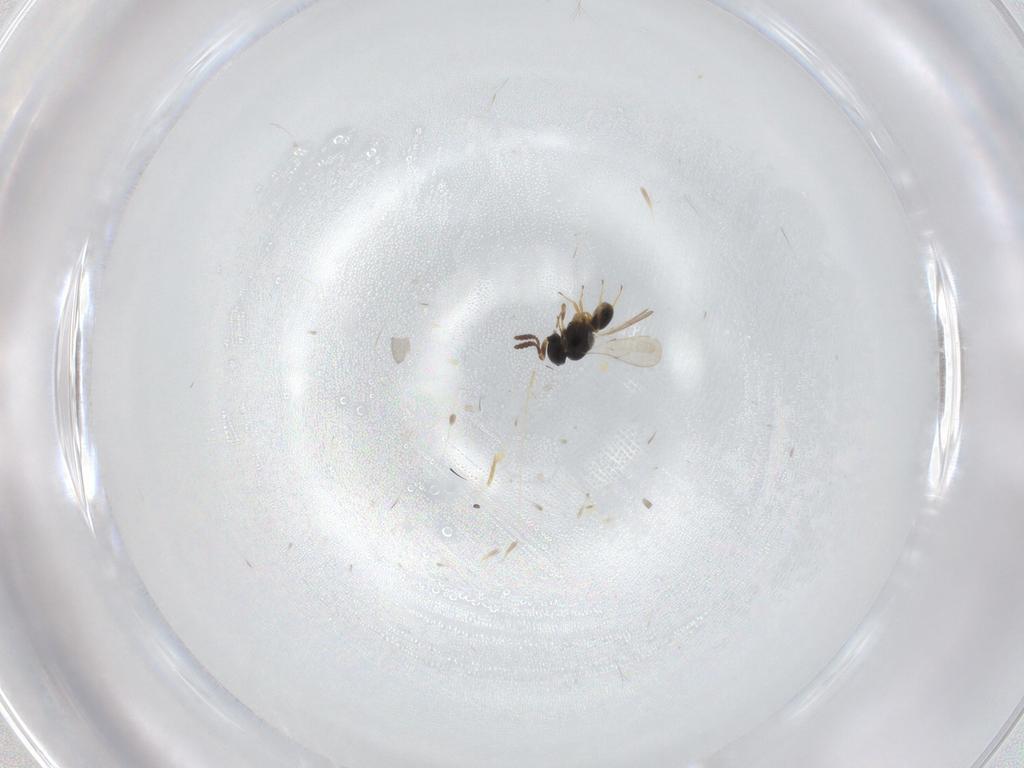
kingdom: Animalia
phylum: Arthropoda
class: Insecta
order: Hymenoptera
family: Scelionidae
